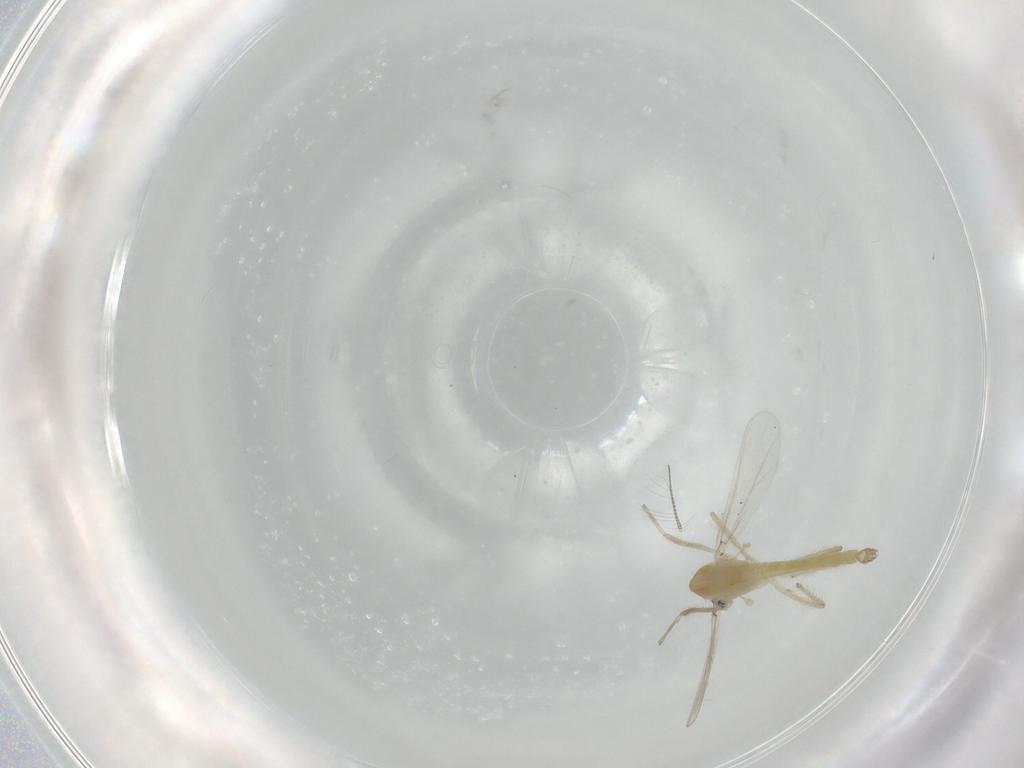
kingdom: Animalia
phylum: Arthropoda
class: Insecta
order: Diptera
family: Chironomidae
